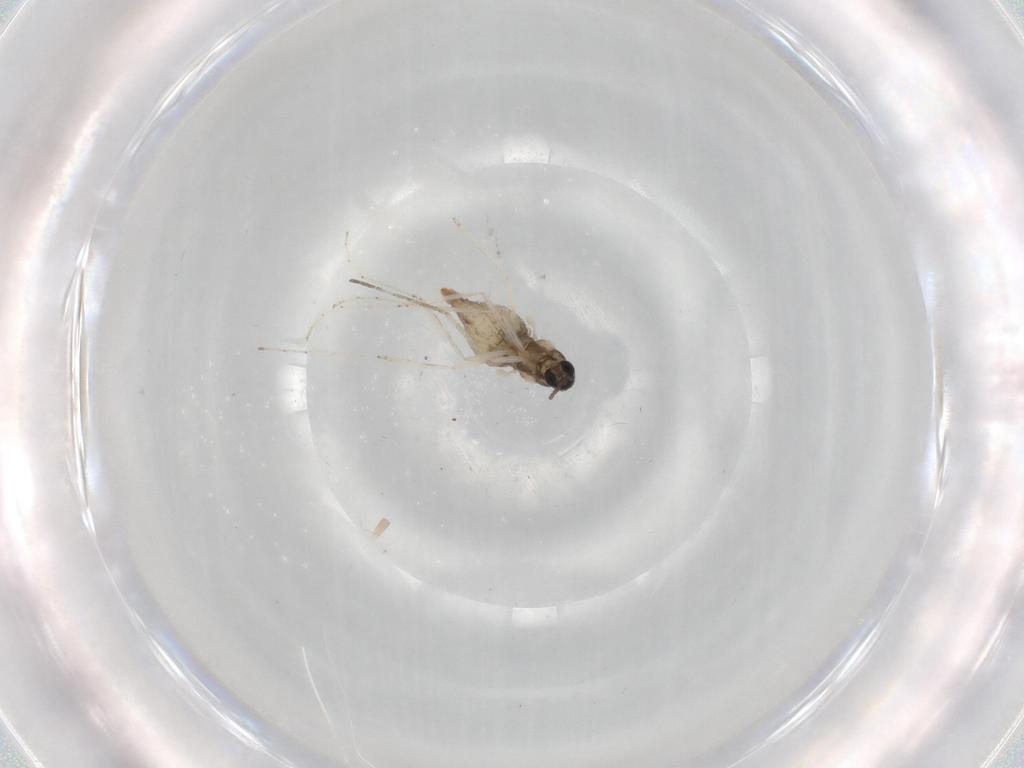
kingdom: Animalia
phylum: Arthropoda
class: Insecta
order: Diptera
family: Cecidomyiidae
